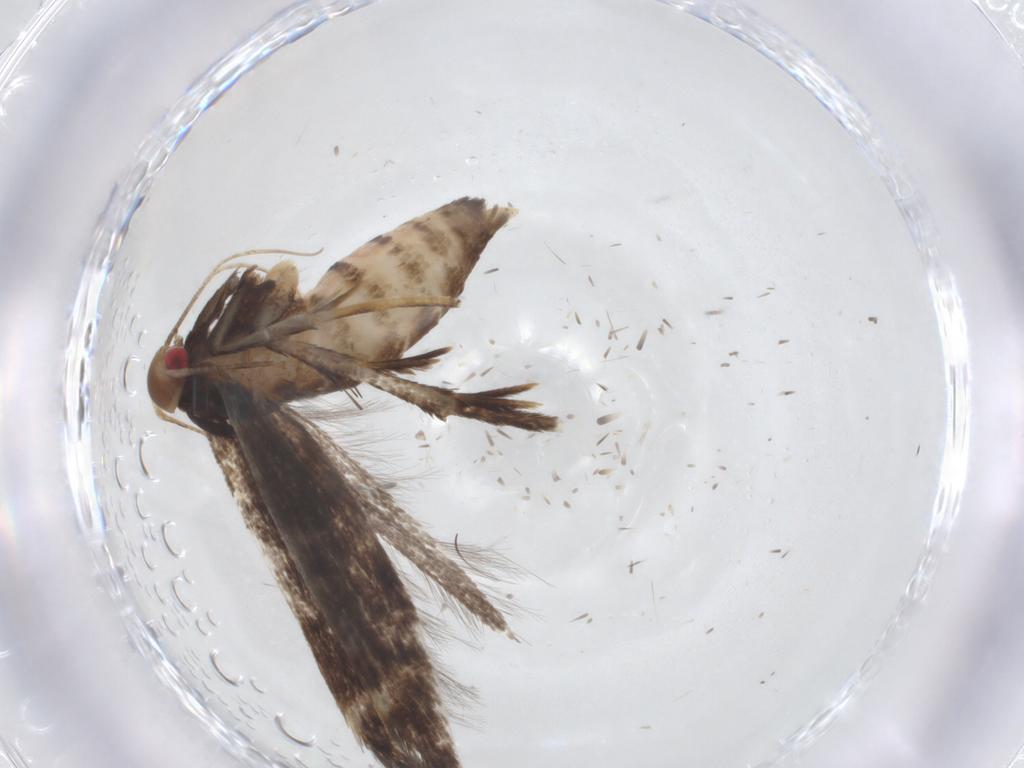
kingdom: Animalia
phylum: Arthropoda
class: Insecta
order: Lepidoptera
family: Gelechiidae
